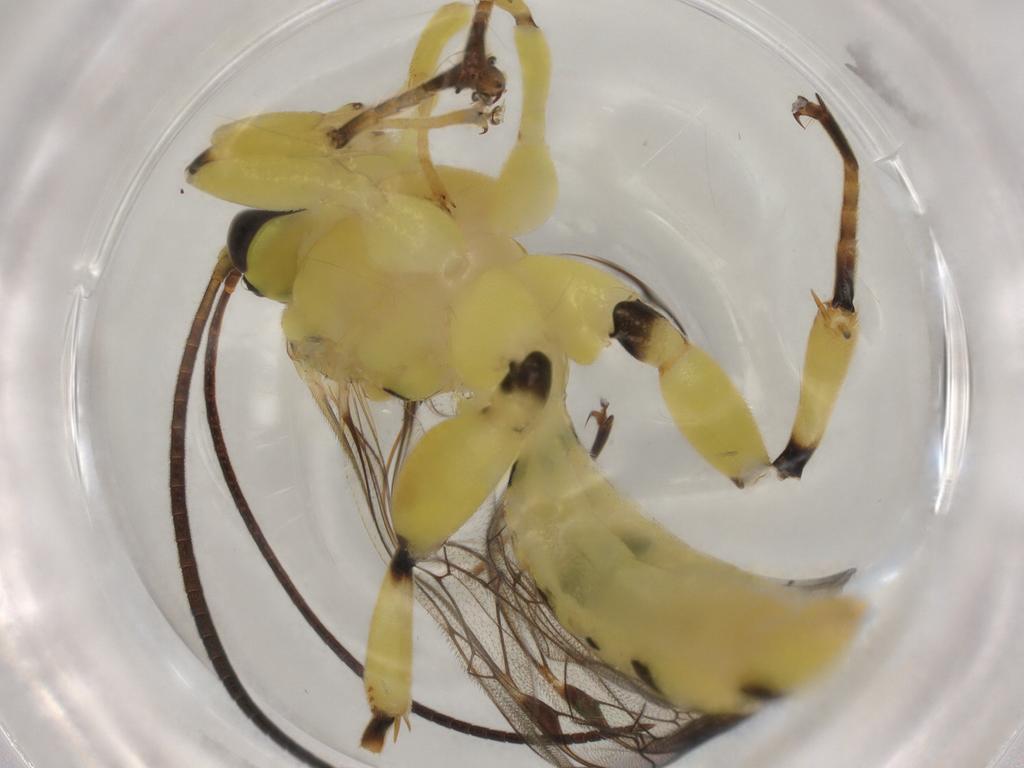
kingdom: Animalia
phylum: Arthropoda
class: Insecta
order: Hymenoptera
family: Ichneumonidae
